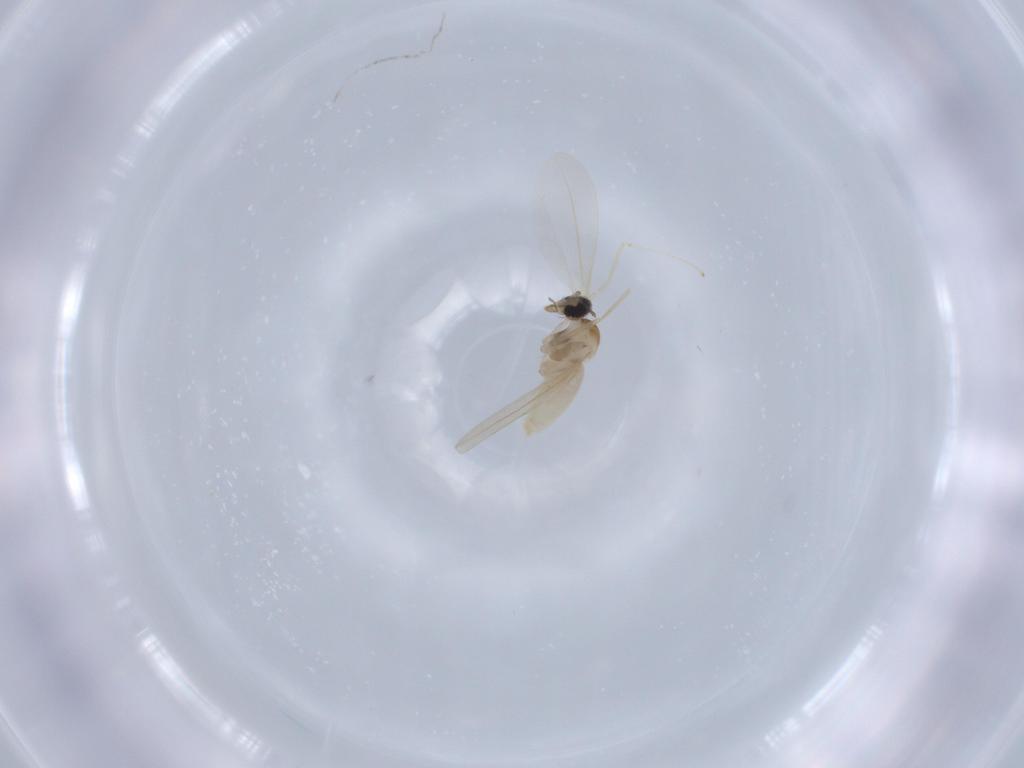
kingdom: Animalia
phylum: Arthropoda
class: Insecta
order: Diptera
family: Cecidomyiidae
